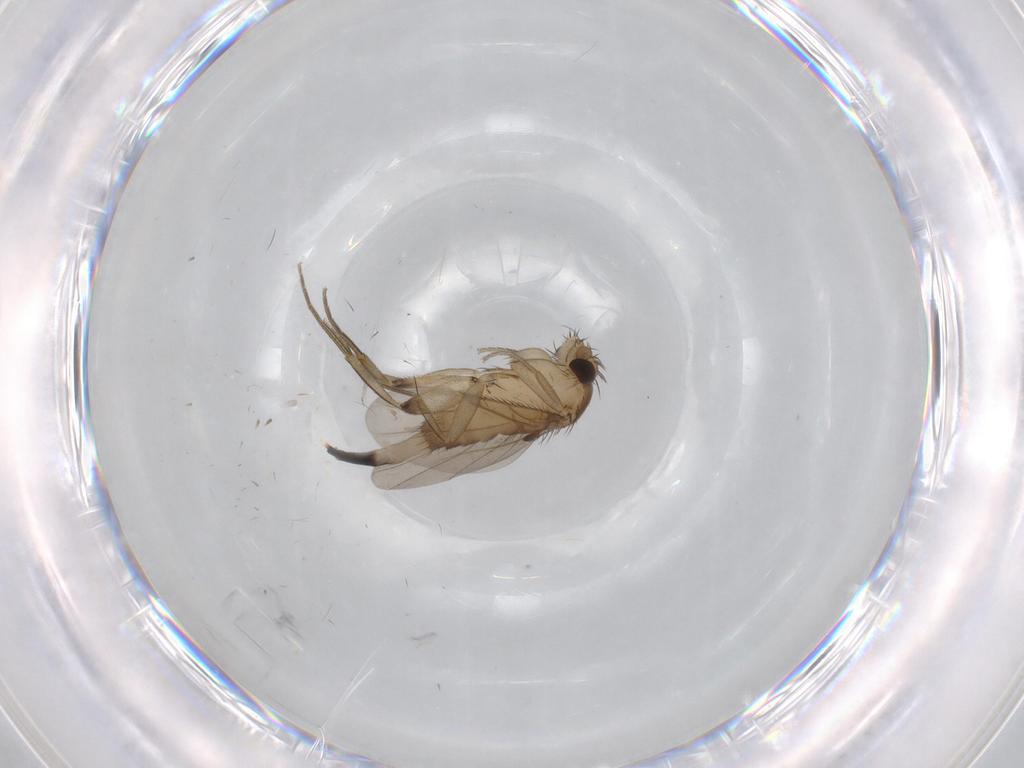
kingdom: Animalia
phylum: Arthropoda
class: Insecta
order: Diptera
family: Phoridae
